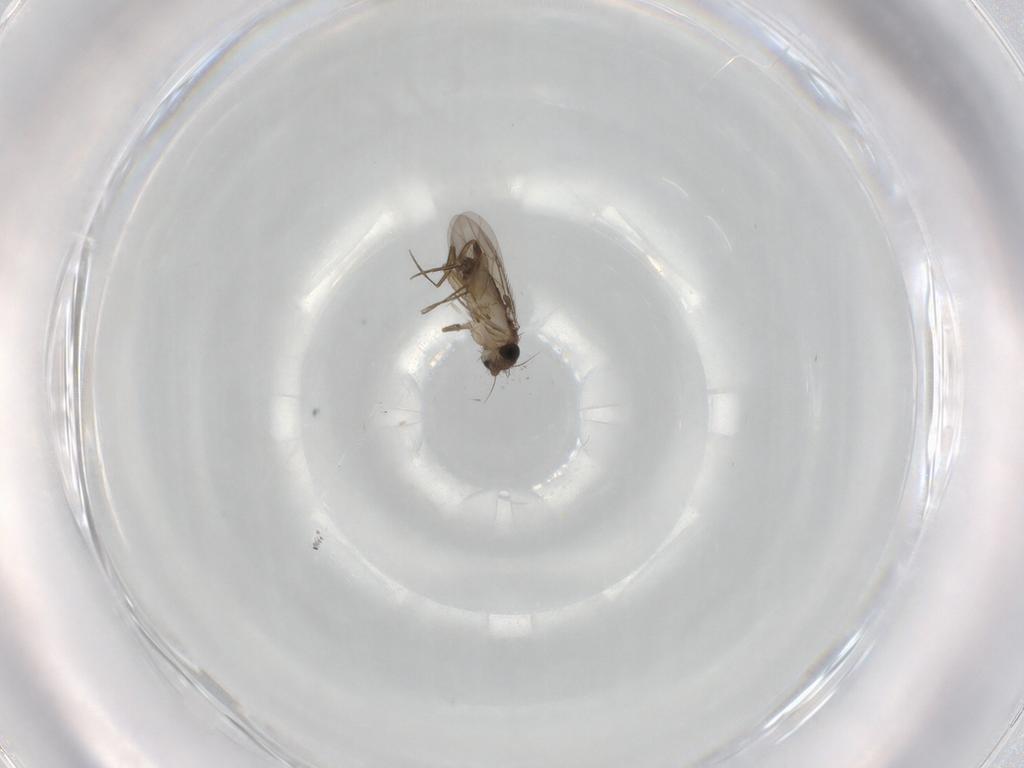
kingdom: Animalia
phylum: Arthropoda
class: Insecta
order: Diptera
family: Phoridae
